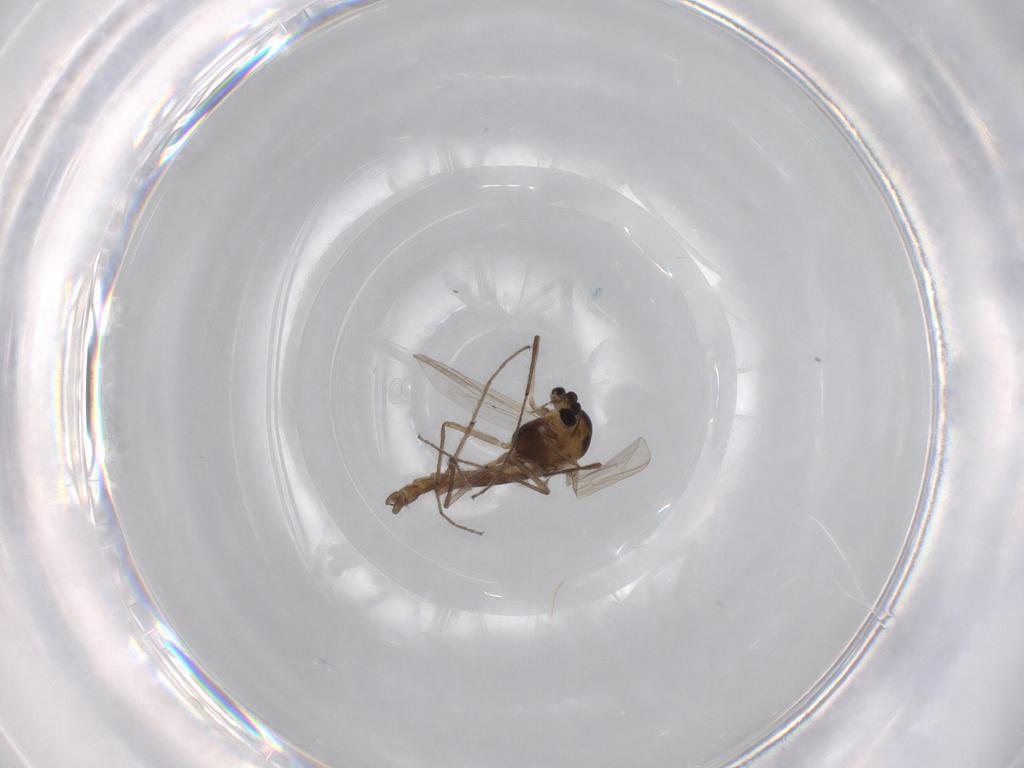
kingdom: Animalia
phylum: Arthropoda
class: Insecta
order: Diptera
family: Chironomidae
